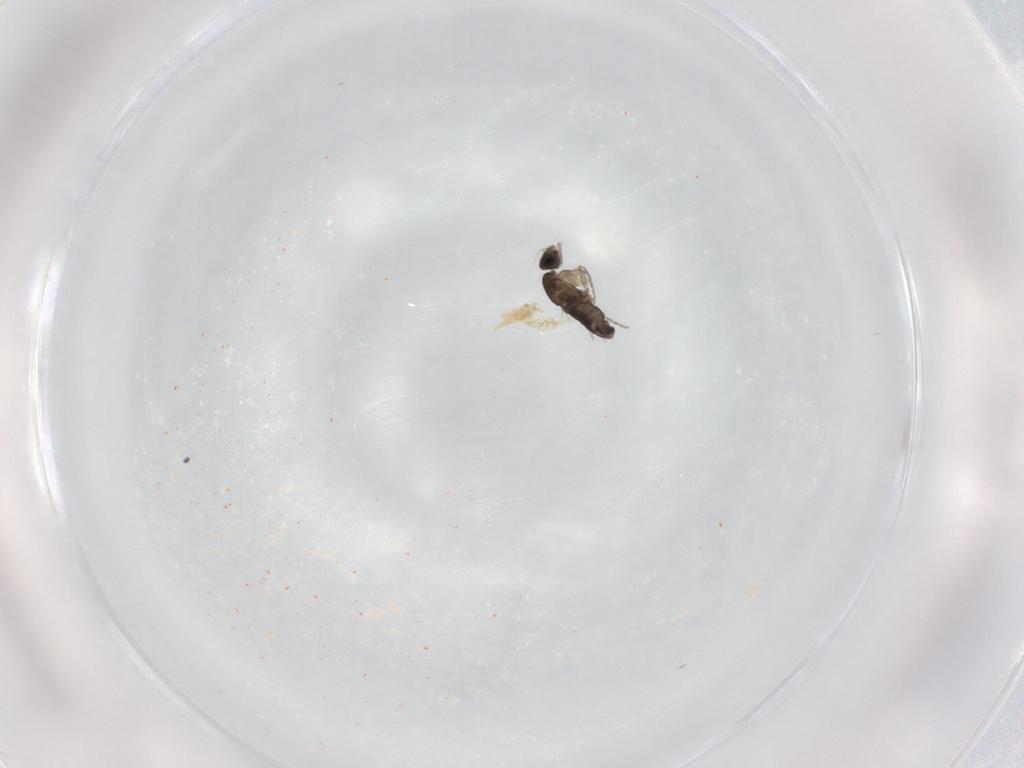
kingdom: Animalia
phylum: Arthropoda
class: Insecta
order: Diptera
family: Phoridae
